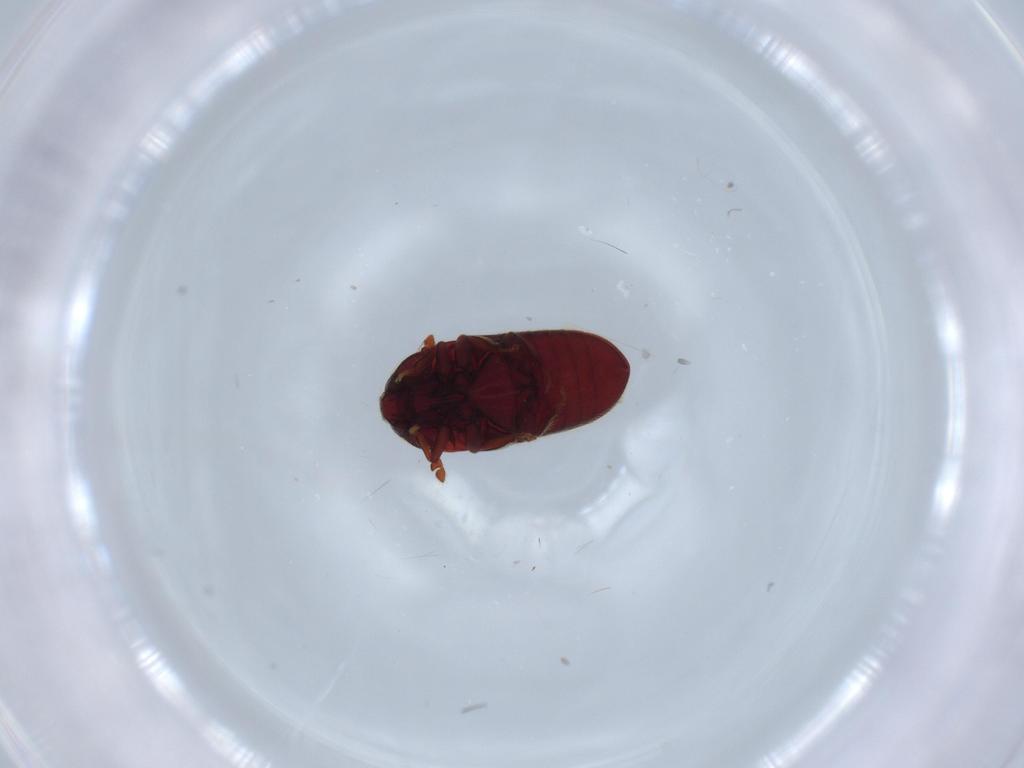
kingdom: Animalia
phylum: Arthropoda
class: Insecta
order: Coleoptera
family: Throscidae
